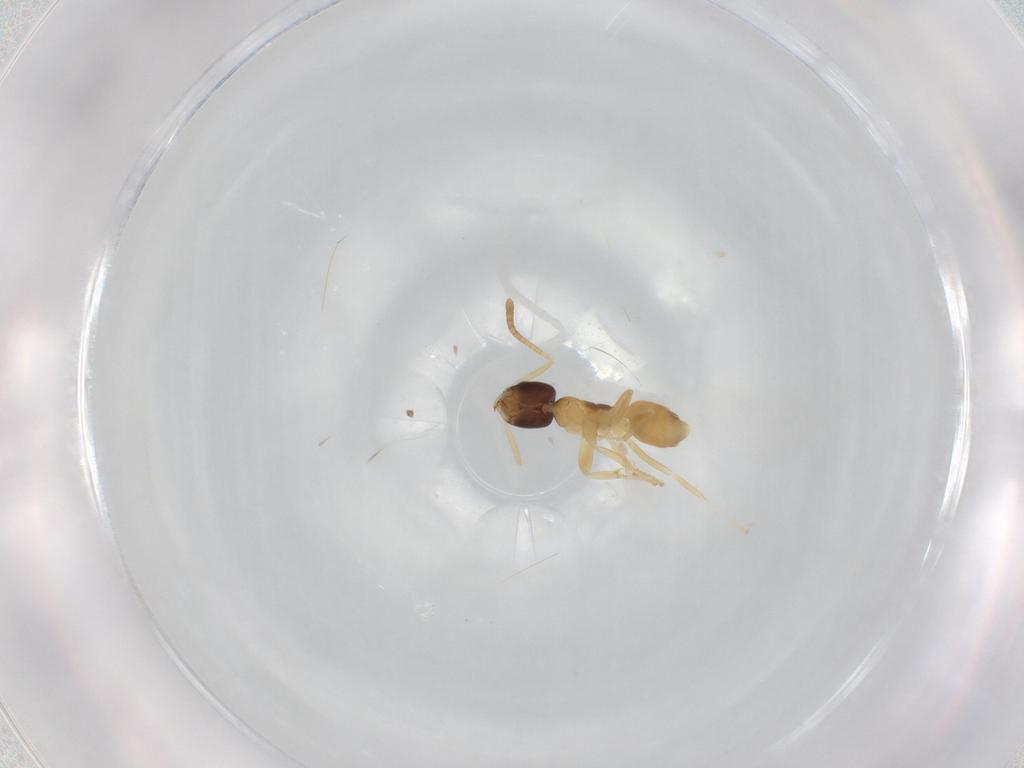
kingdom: Animalia
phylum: Arthropoda
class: Insecta
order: Hymenoptera
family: Formicidae
